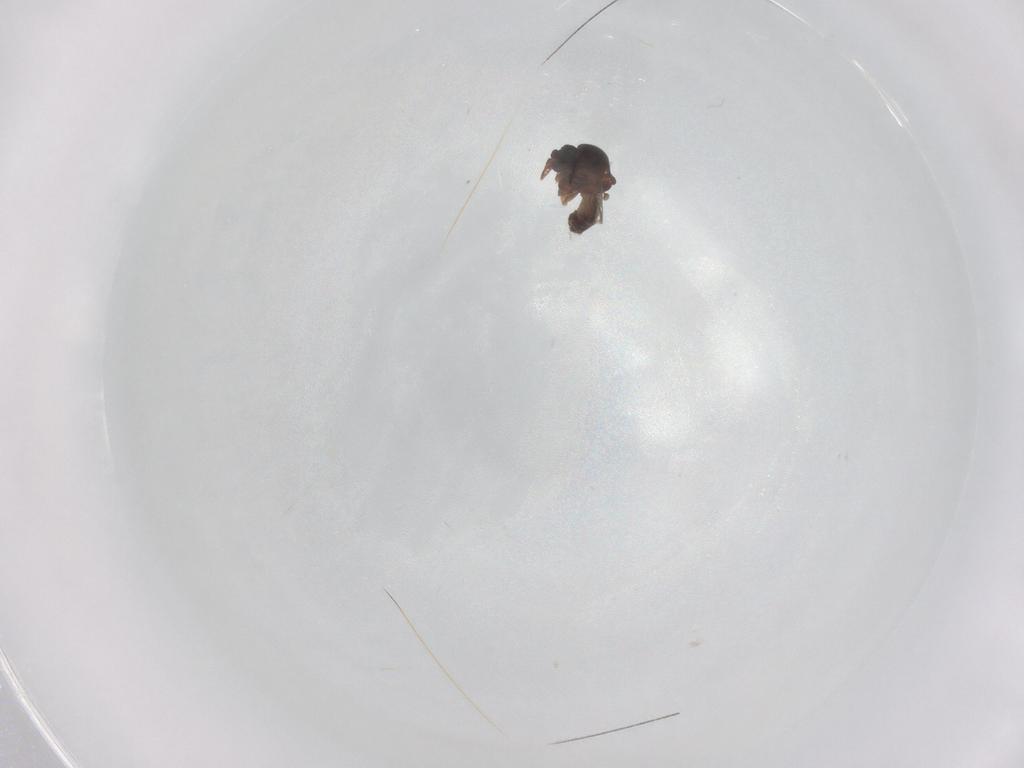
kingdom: Animalia
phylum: Arthropoda
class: Insecta
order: Diptera
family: Ceratopogonidae
